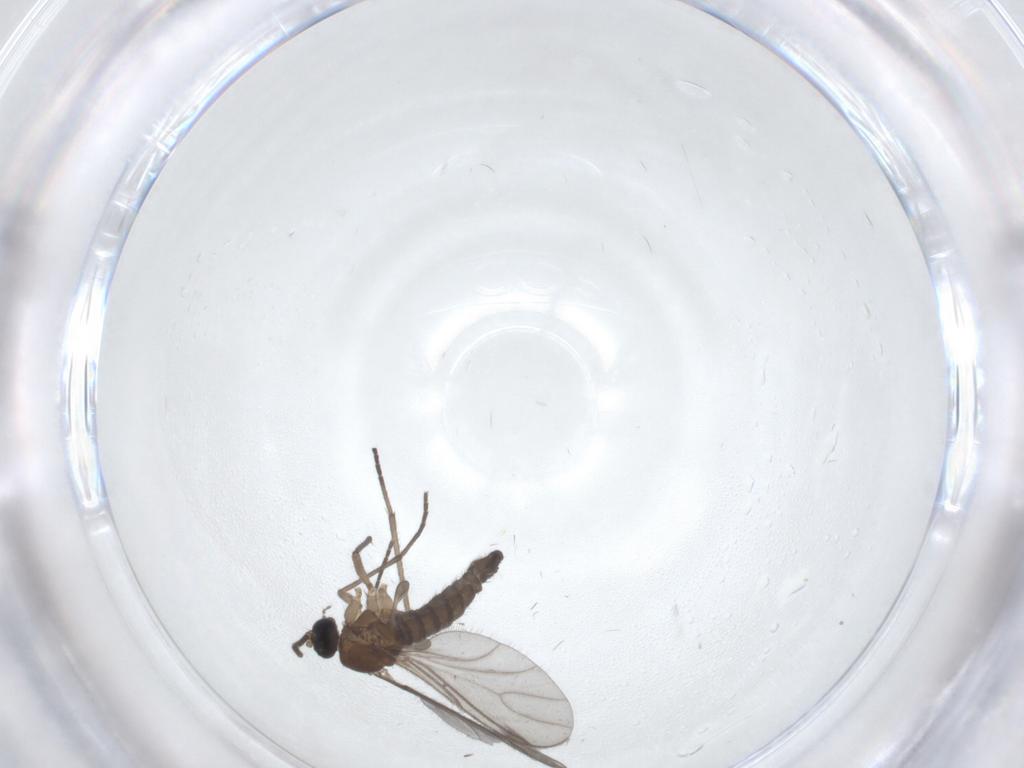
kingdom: Animalia
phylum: Arthropoda
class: Insecta
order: Diptera
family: Sciaridae
